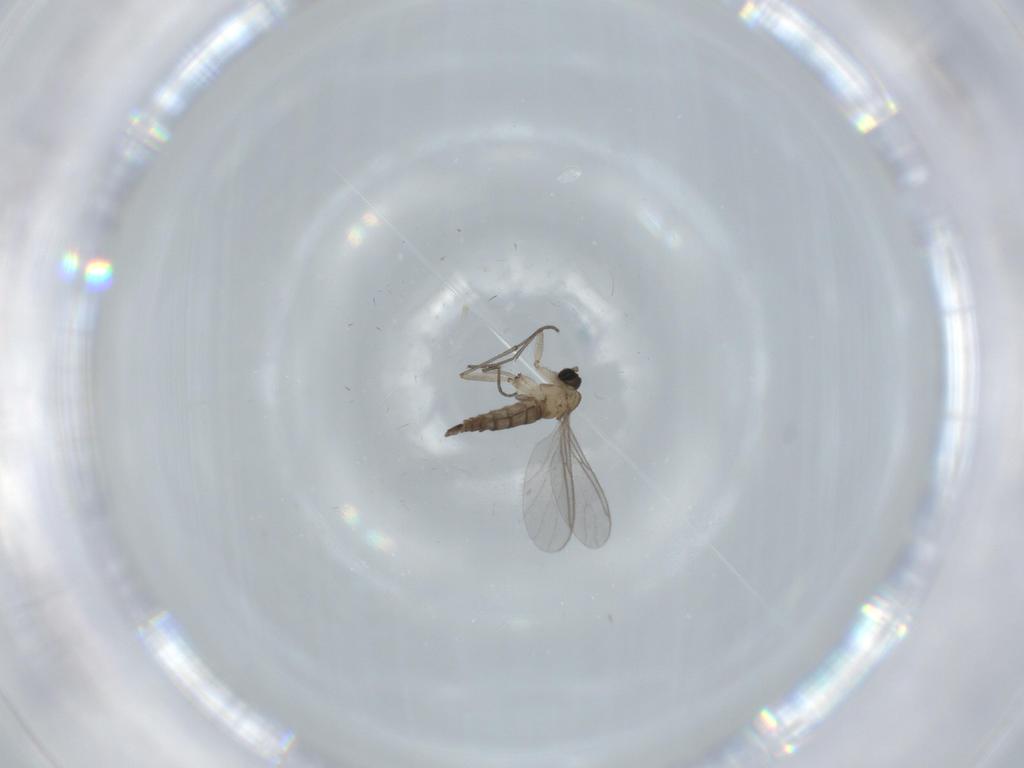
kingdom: Animalia
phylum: Arthropoda
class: Insecta
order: Diptera
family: Sciaridae
